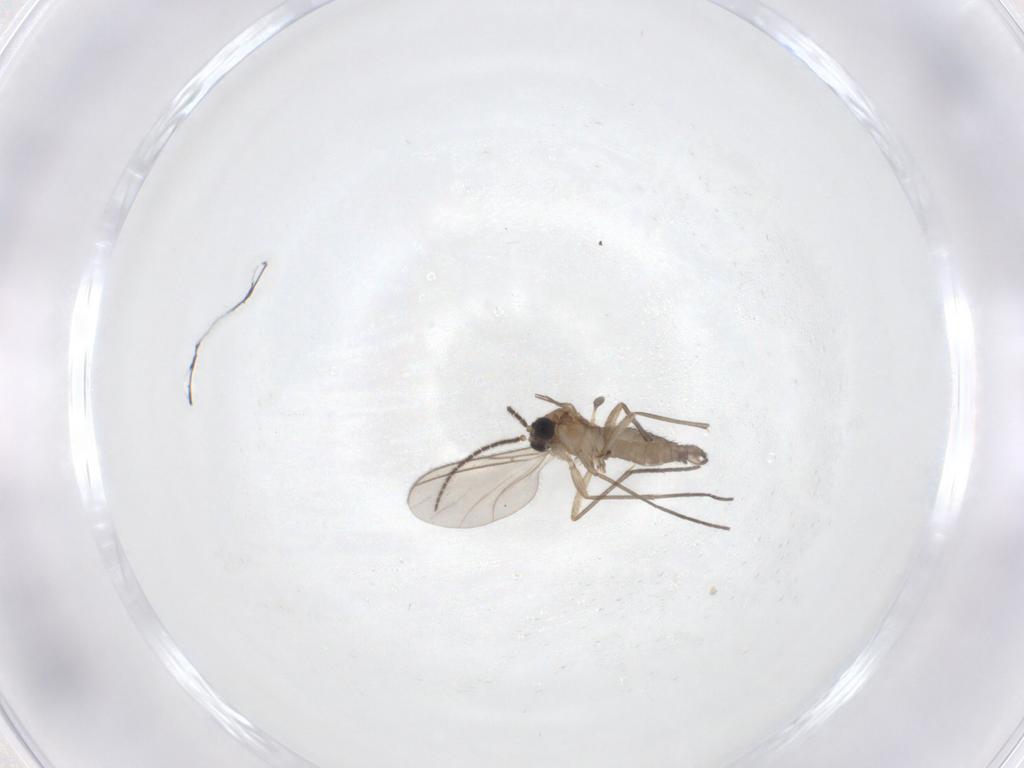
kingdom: Animalia
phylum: Arthropoda
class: Insecta
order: Diptera
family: Sciaridae
